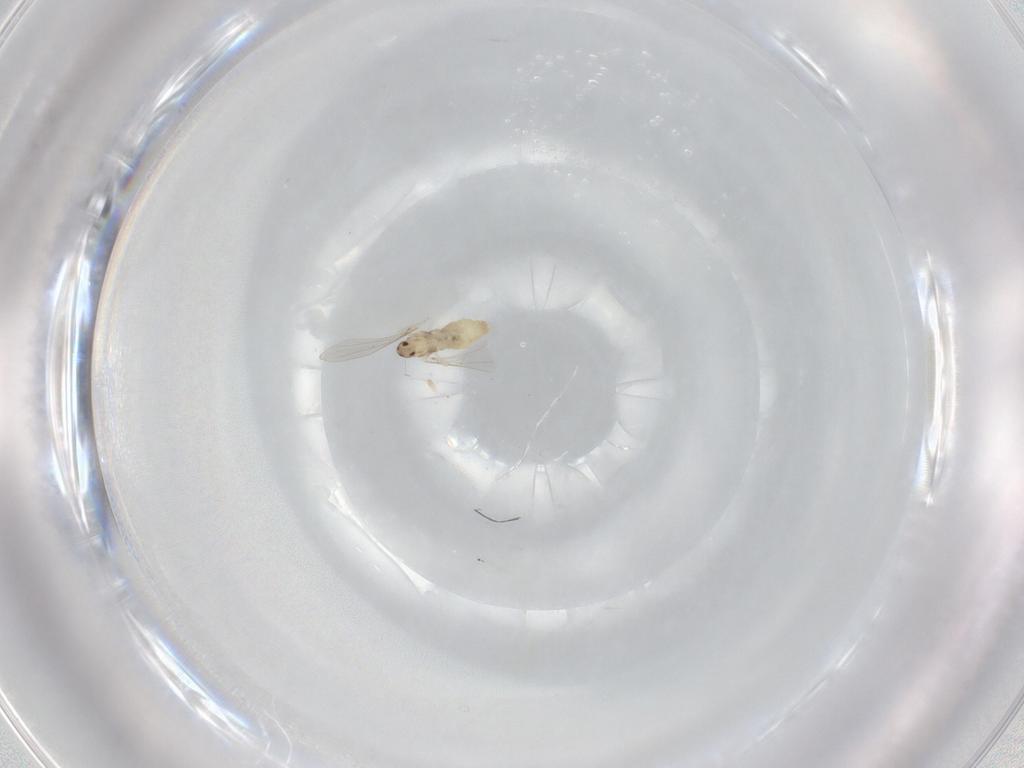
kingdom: Animalia
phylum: Arthropoda
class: Insecta
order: Diptera
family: Cecidomyiidae
